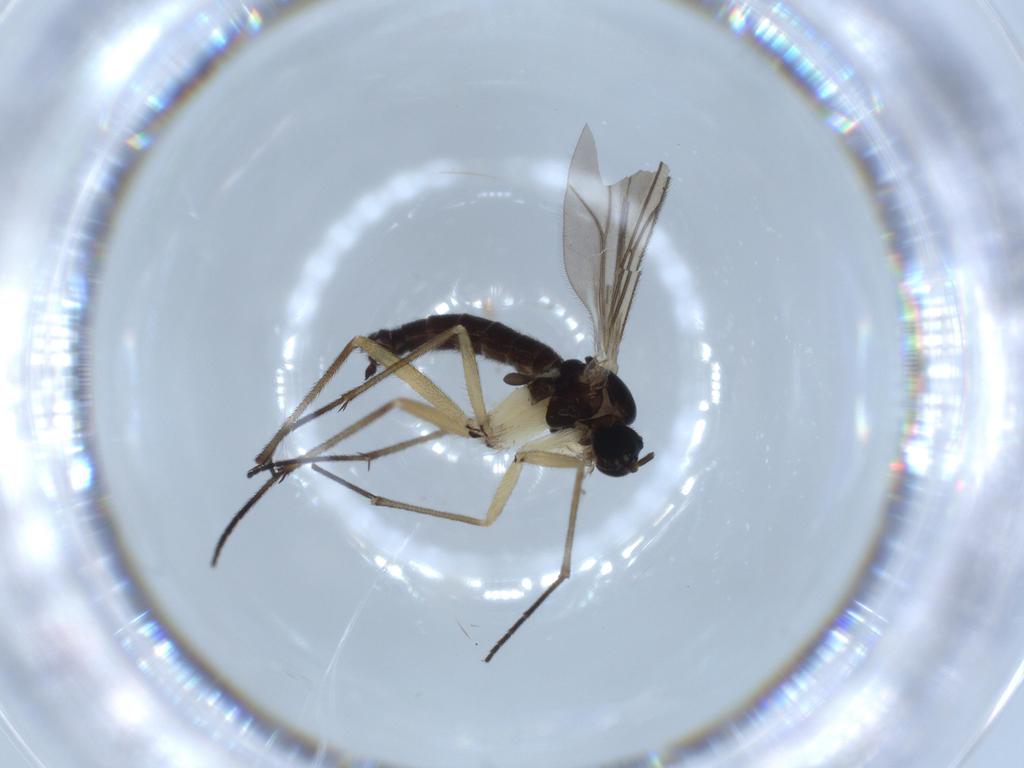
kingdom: Animalia
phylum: Arthropoda
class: Insecta
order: Diptera
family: Sciaridae
